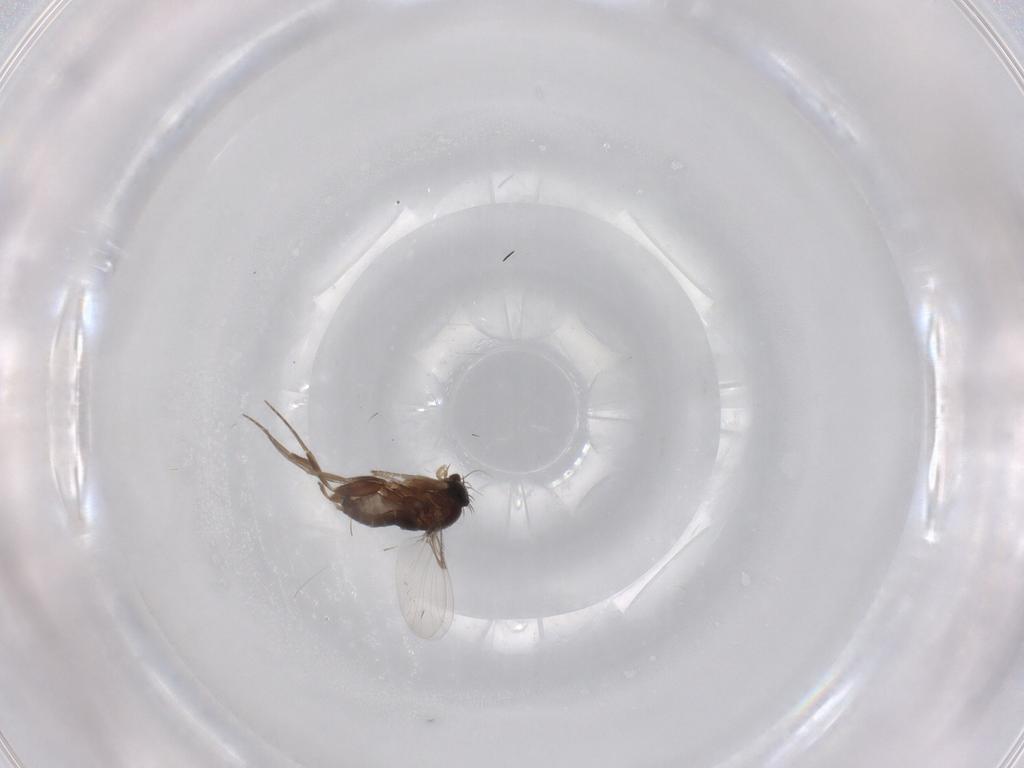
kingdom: Animalia
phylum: Arthropoda
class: Insecta
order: Diptera
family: Phoridae
